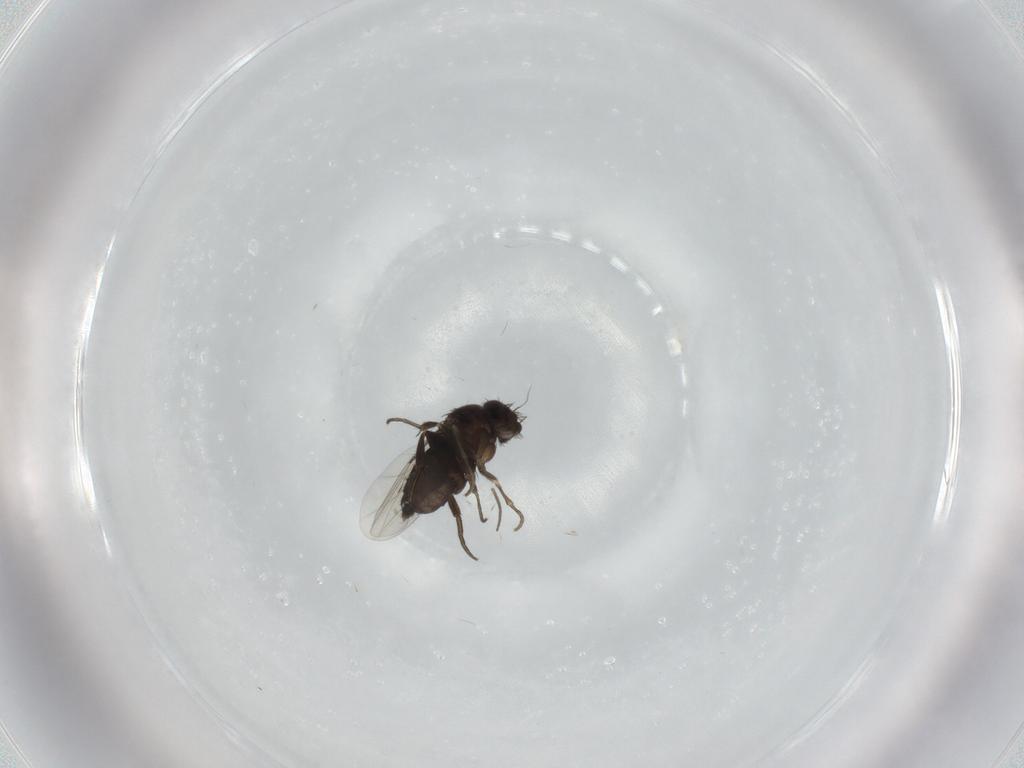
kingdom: Animalia
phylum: Arthropoda
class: Insecta
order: Diptera
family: Phoridae
